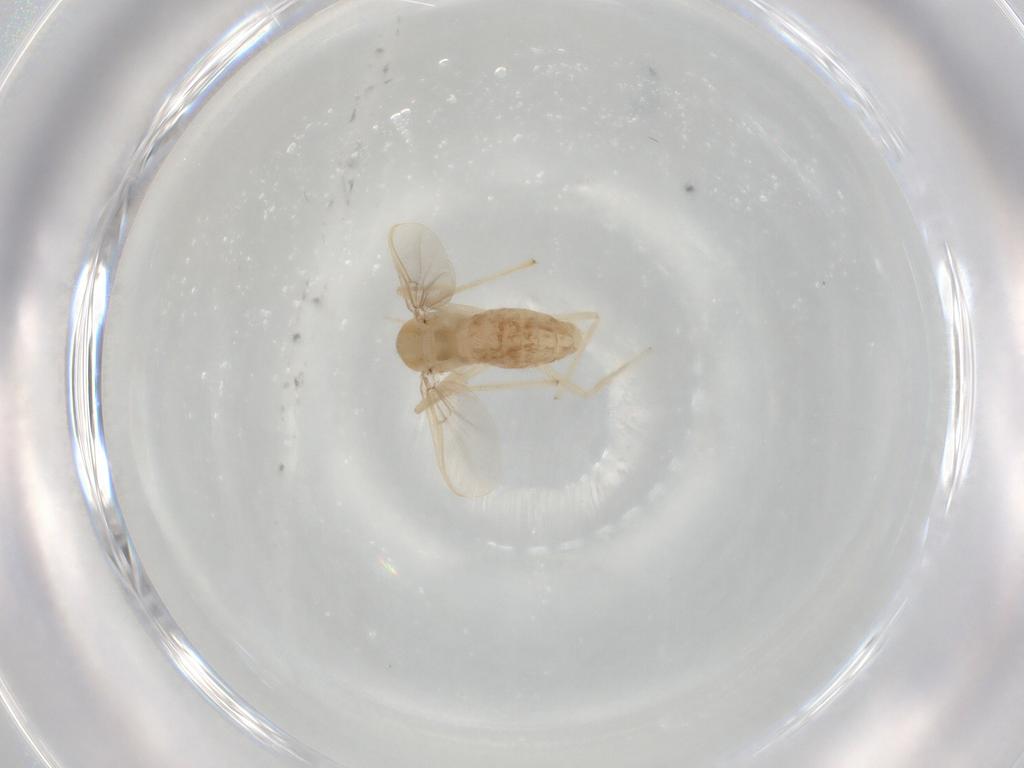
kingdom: Animalia
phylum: Arthropoda
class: Insecta
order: Diptera
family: Chironomidae
